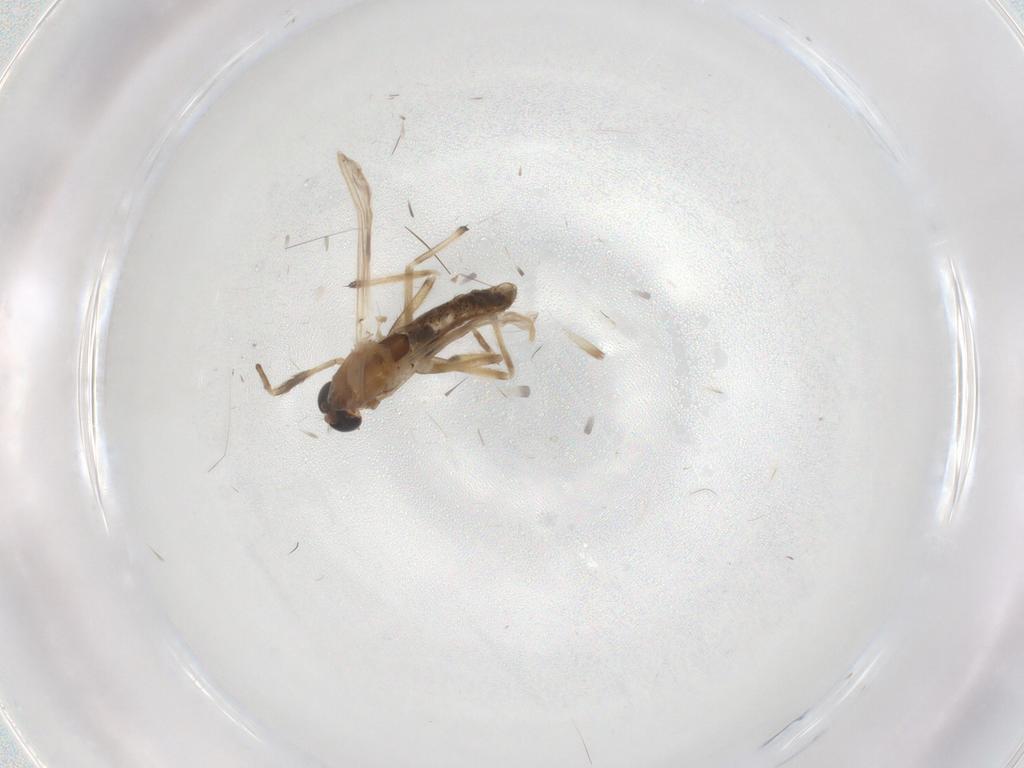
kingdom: Animalia
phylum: Arthropoda
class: Insecta
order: Diptera
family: Chironomidae
